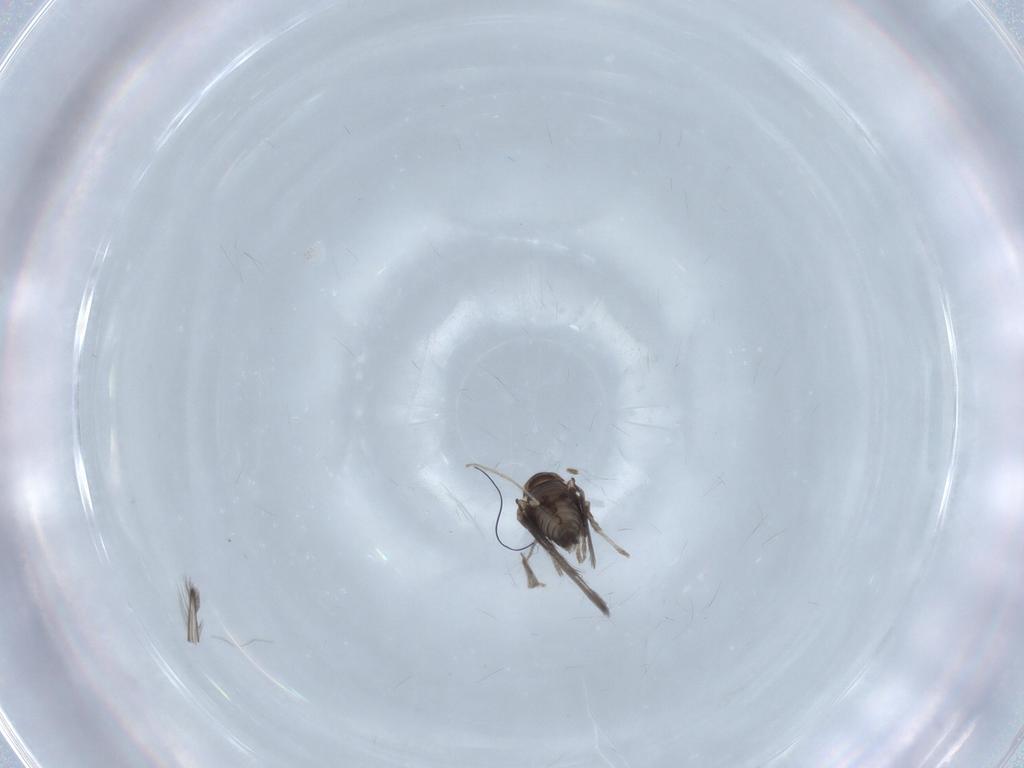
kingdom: Animalia
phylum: Arthropoda
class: Insecta
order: Diptera
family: Psychodidae
